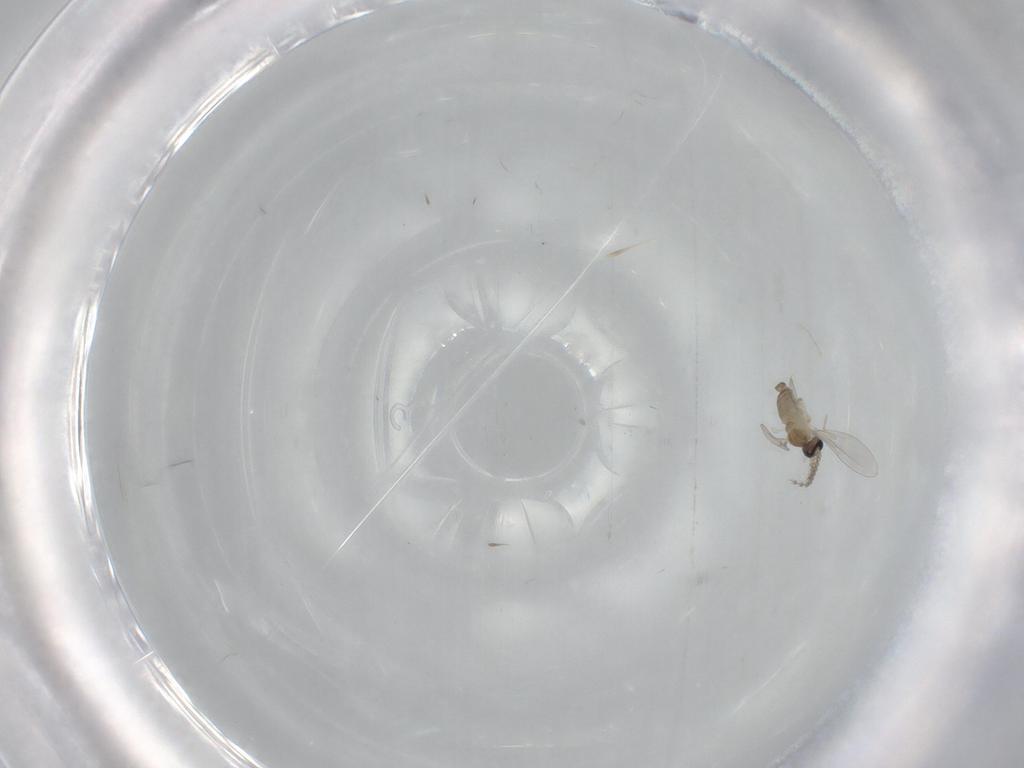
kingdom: Animalia
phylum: Arthropoda
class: Insecta
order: Diptera
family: Cecidomyiidae
